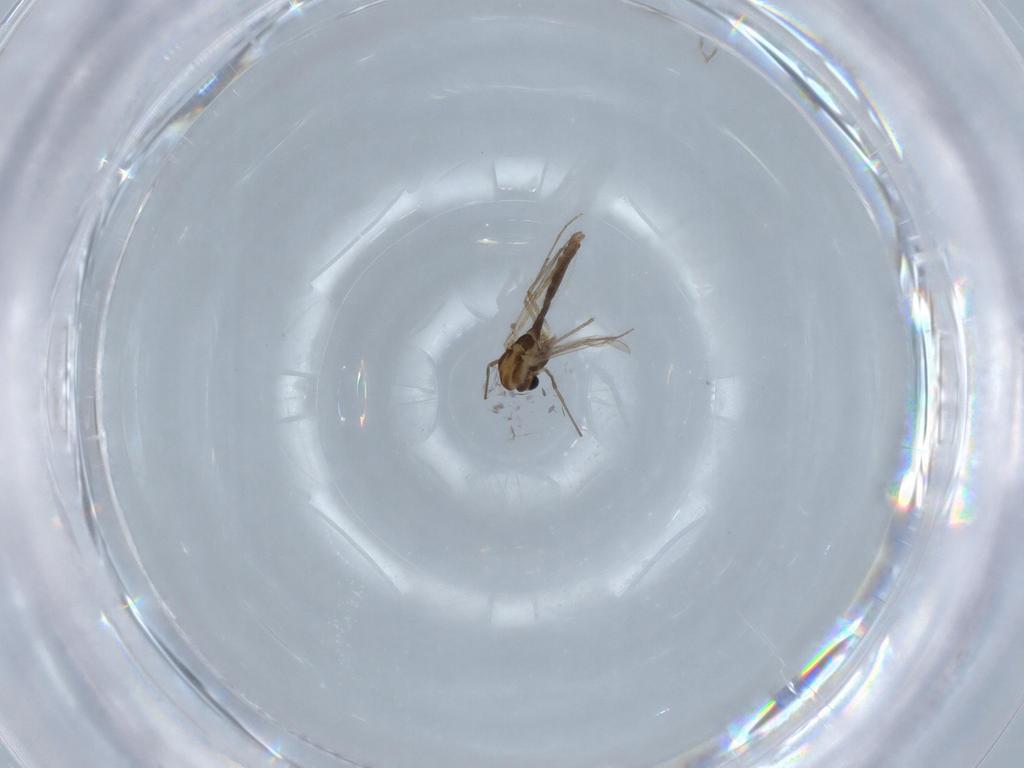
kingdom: Animalia
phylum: Arthropoda
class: Insecta
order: Diptera
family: Chironomidae
